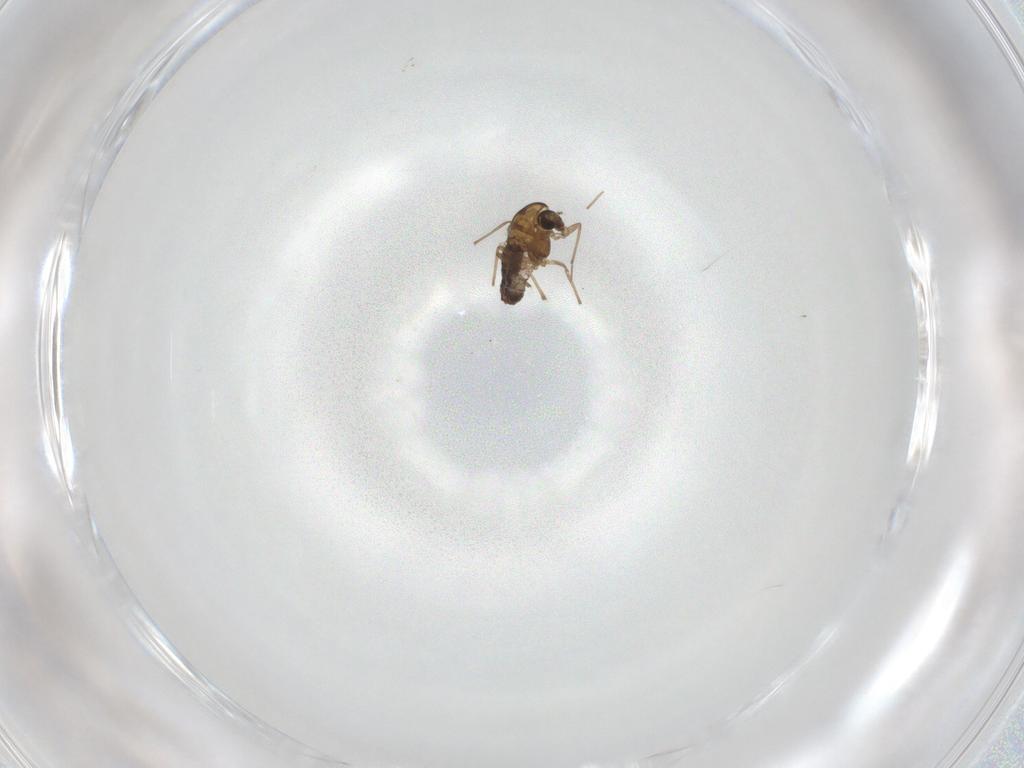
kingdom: Animalia
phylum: Arthropoda
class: Insecta
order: Diptera
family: Chironomidae
